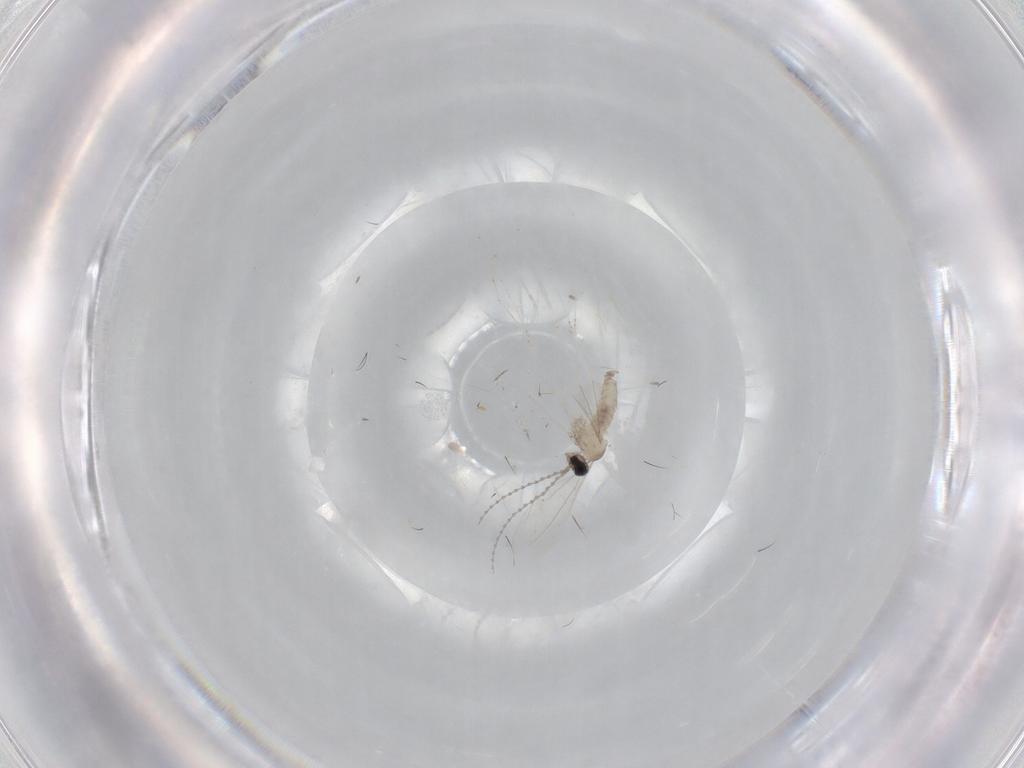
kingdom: Animalia
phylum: Arthropoda
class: Insecta
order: Diptera
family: Cecidomyiidae
